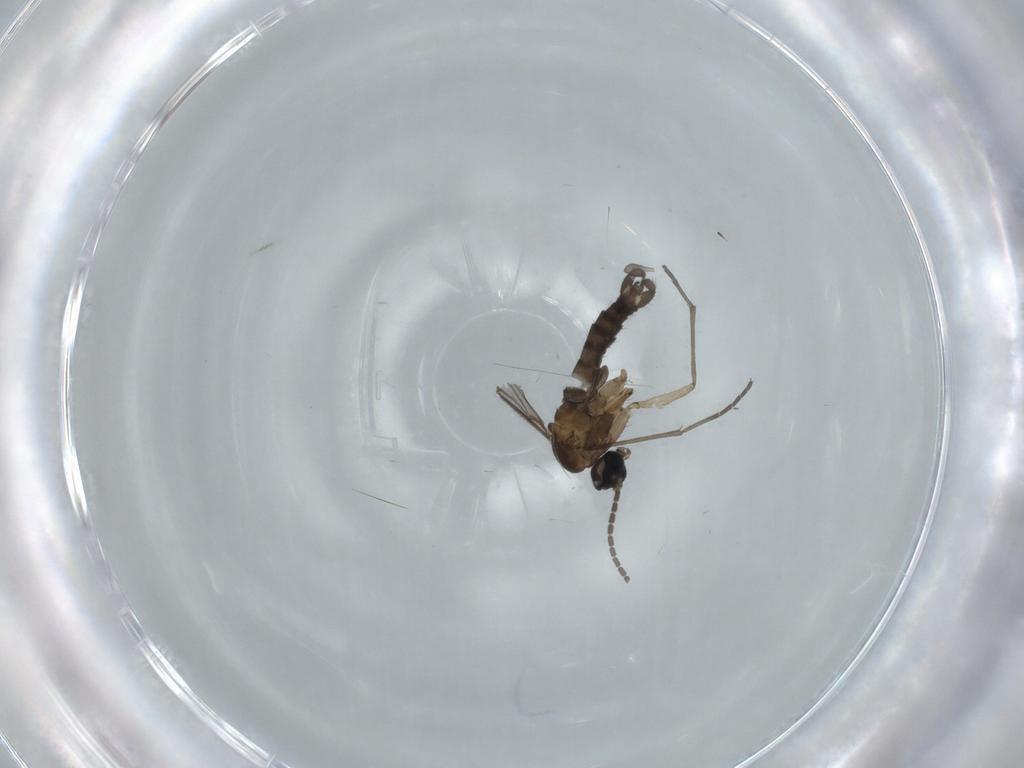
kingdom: Animalia
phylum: Arthropoda
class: Insecta
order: Diptera
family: Sciaridae
